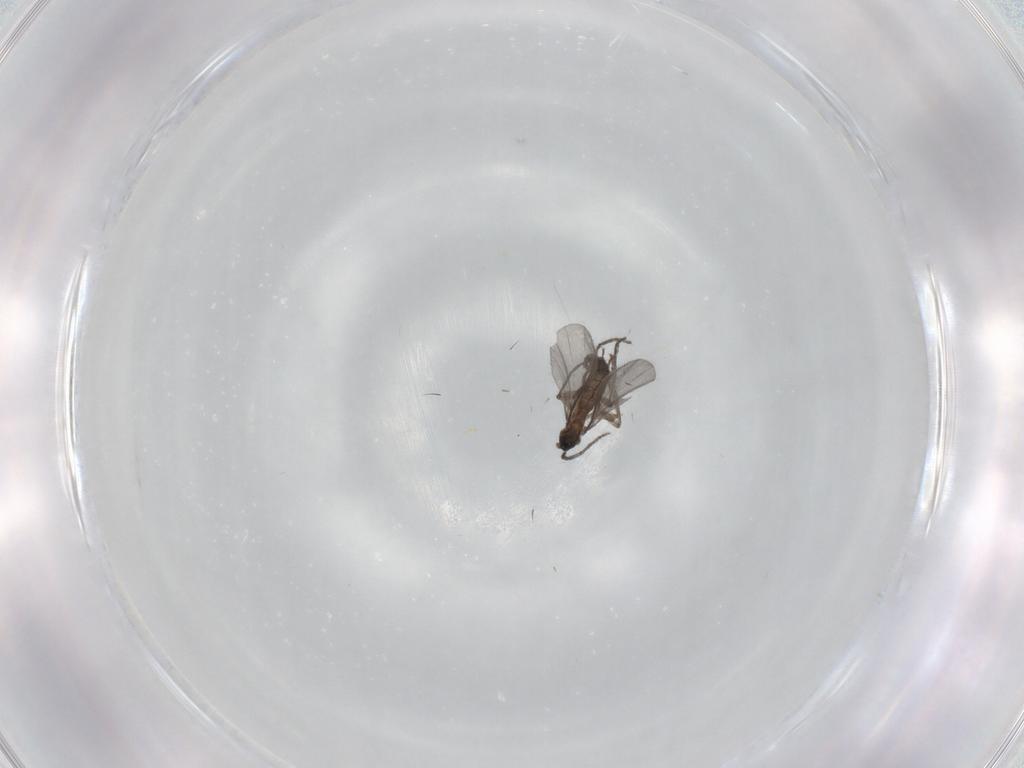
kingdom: Animalia
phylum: Arthropoda
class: Insecta
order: Diptera
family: Sciaridae
